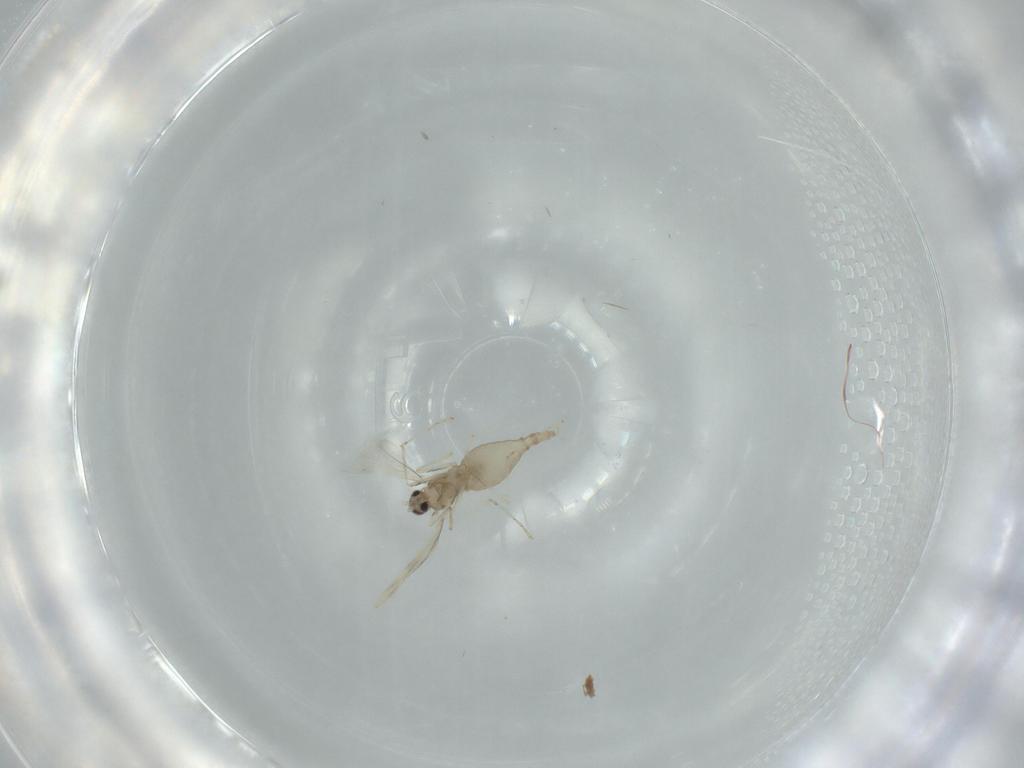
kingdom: Animalia
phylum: Arthropoda
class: Insecta
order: Diptera
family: Cecidomyiidae
